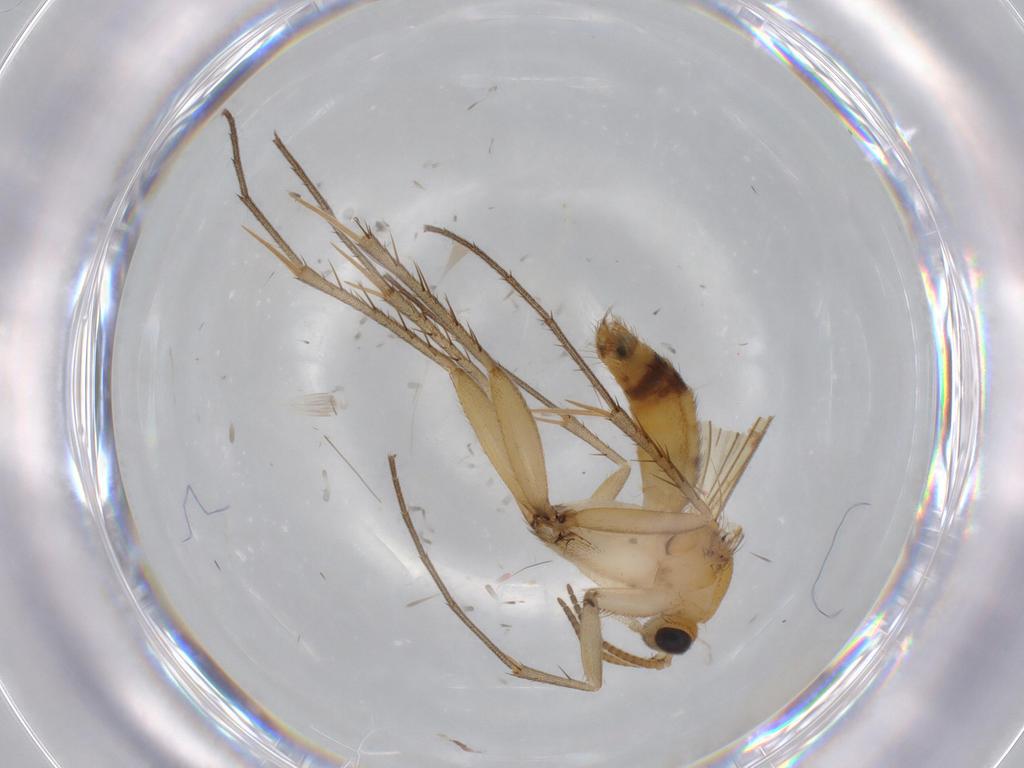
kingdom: Animalia
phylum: Arthropoda
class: Insecta
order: Diptera
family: Mycetophilidae
